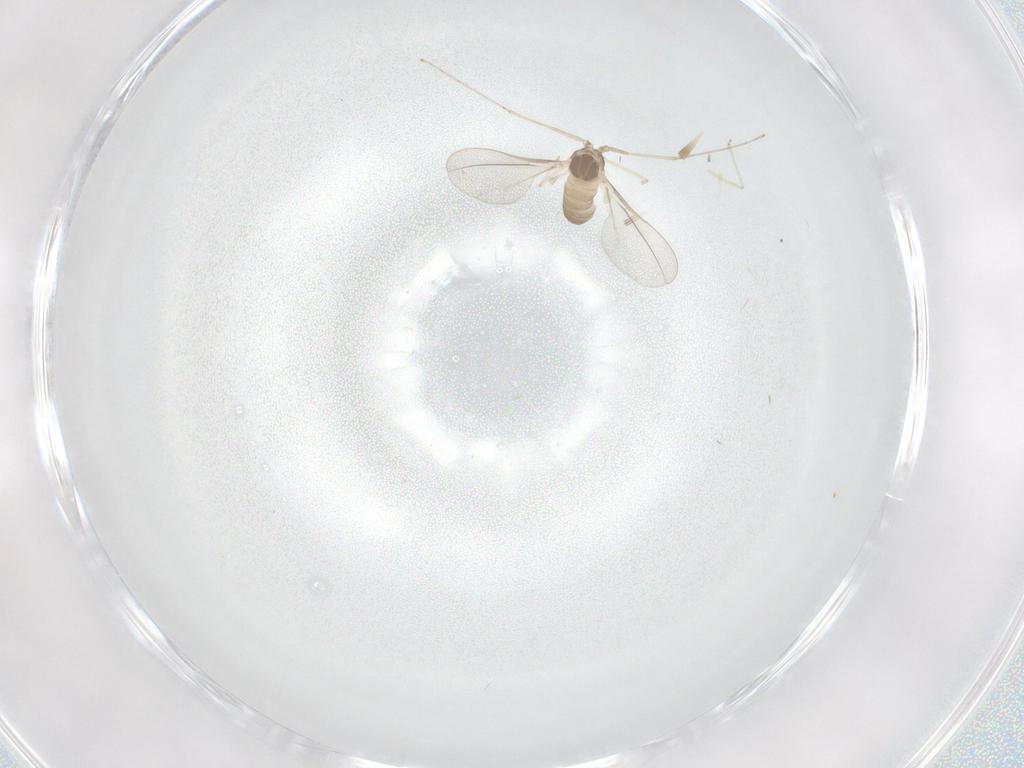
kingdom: Animalia
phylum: Arthropoda
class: Insecta
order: Diptera
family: Cecidomyiidae
